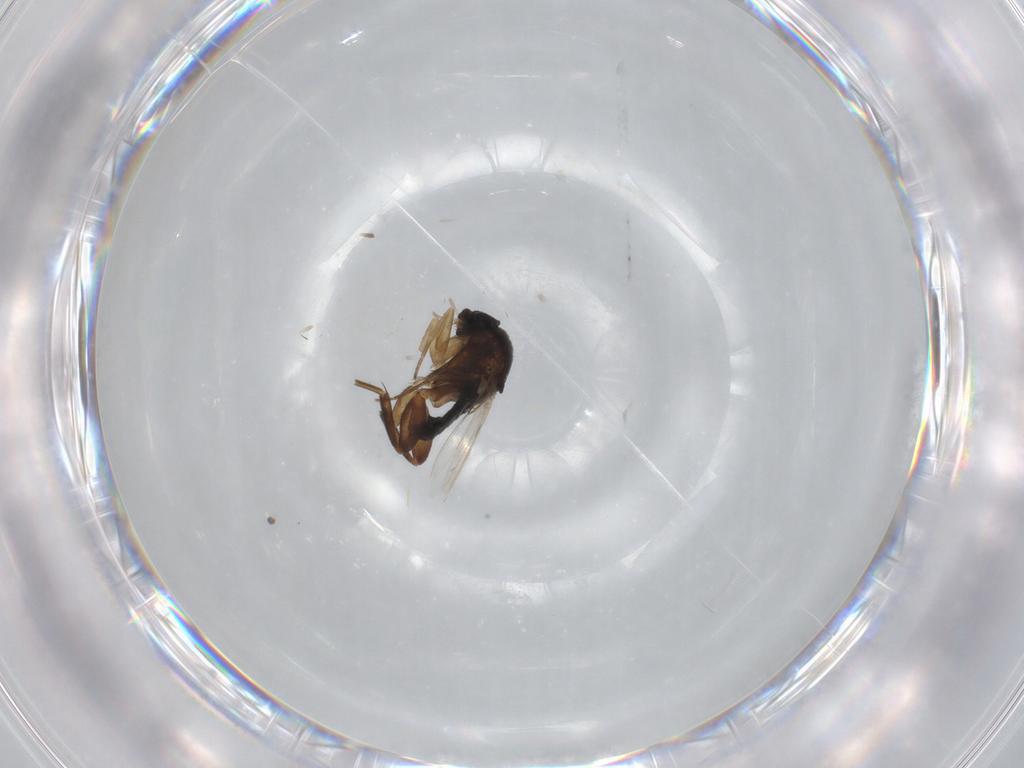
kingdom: Animalia
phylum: Arthropoda
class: Insecta
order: Diptera
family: Phoridae
